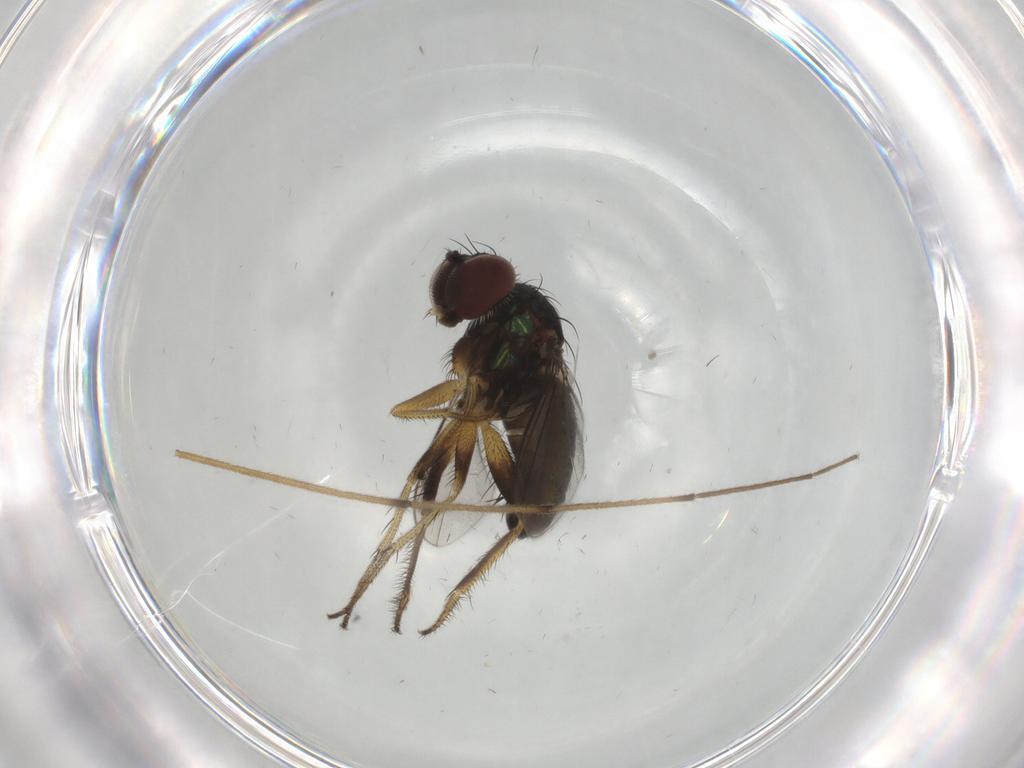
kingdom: Animalia
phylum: Arthropoda
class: Insecta
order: Diptera
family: Dolichopodidae
